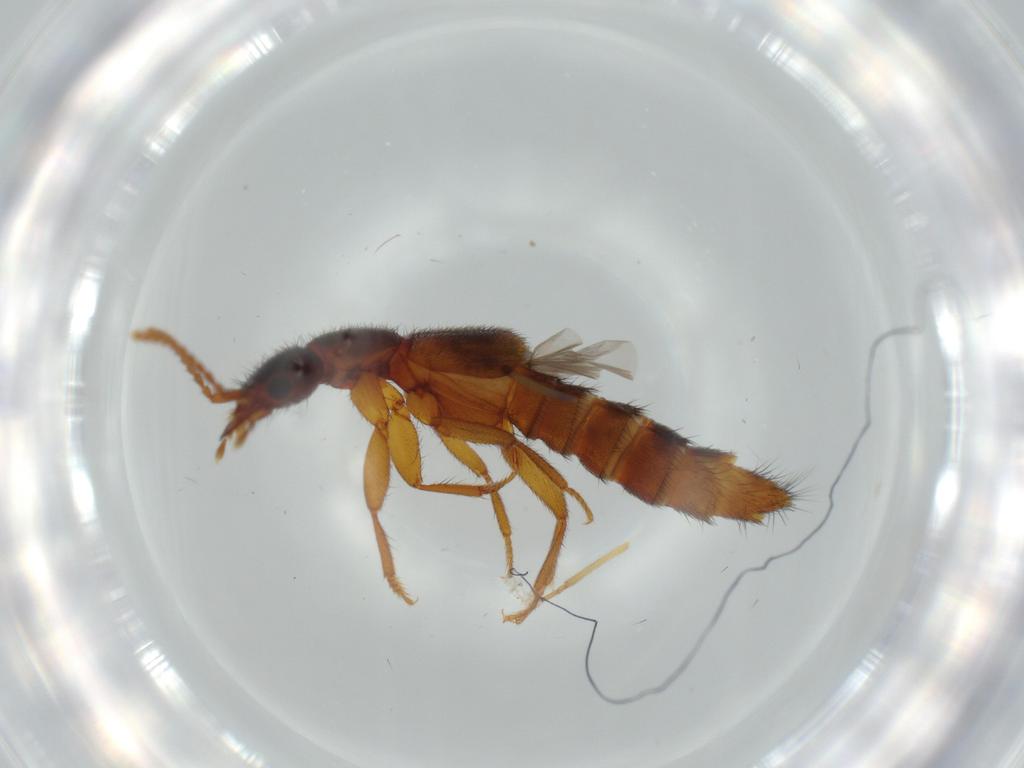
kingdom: Animalia
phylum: Arthropoda
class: Insecta
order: Coleoptera
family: Staphylinidae
